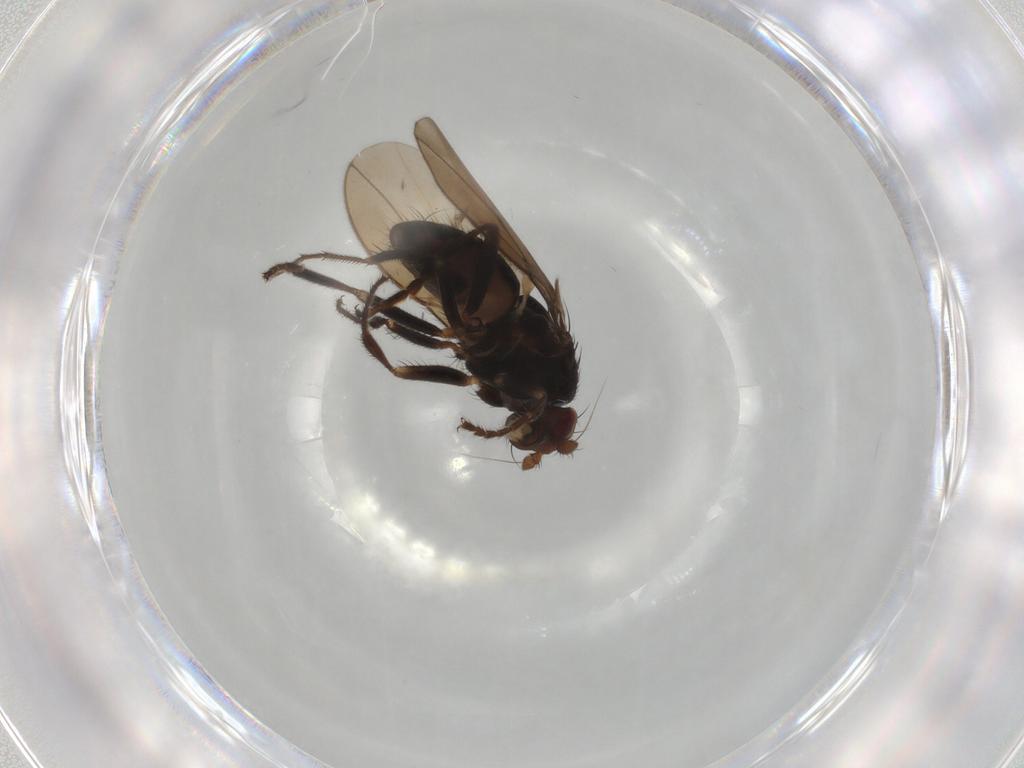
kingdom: Animalia
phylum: Arthropoda
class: Insecta
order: Diptera
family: Sphaeroceridae
